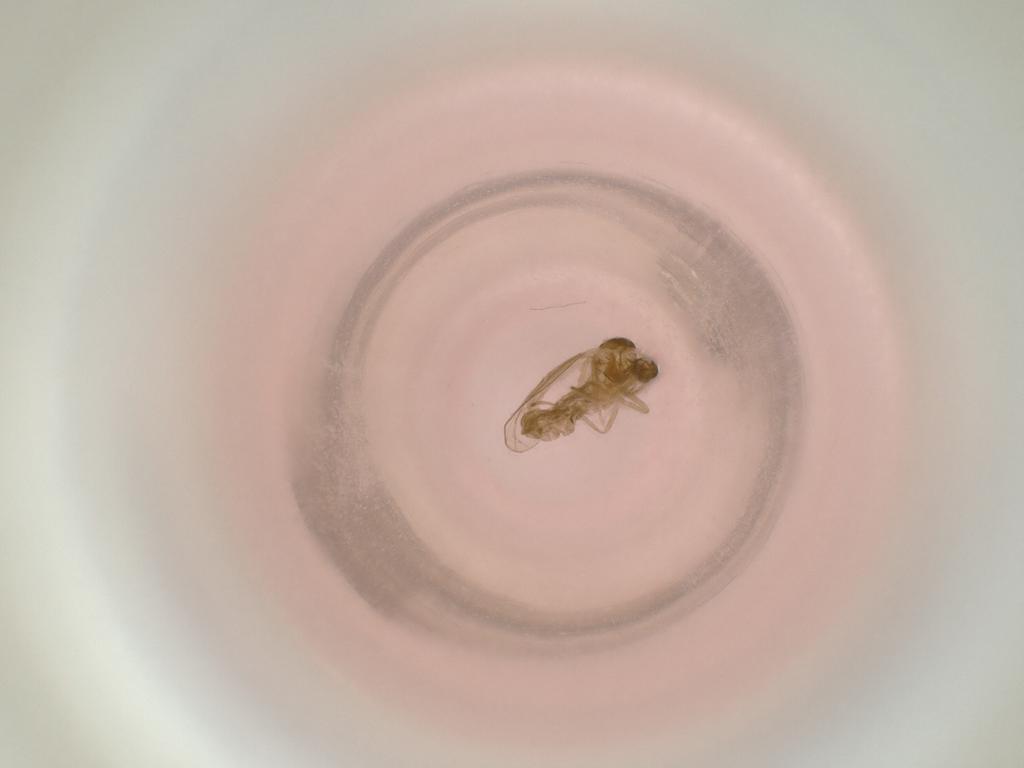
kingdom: Animalia
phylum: Arthropoda
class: Insecta
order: Diptera
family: Cecidomyiidae
